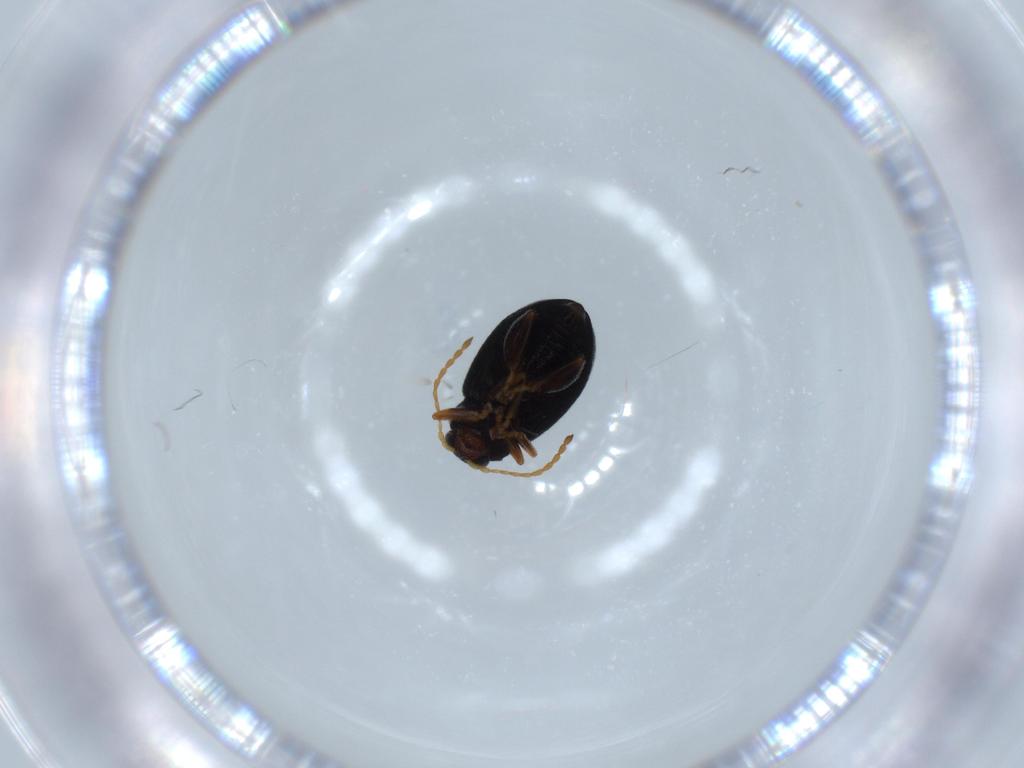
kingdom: Animalia
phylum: Arthropoda
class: Insecta
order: Coleoptera
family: Chrysomelidae
